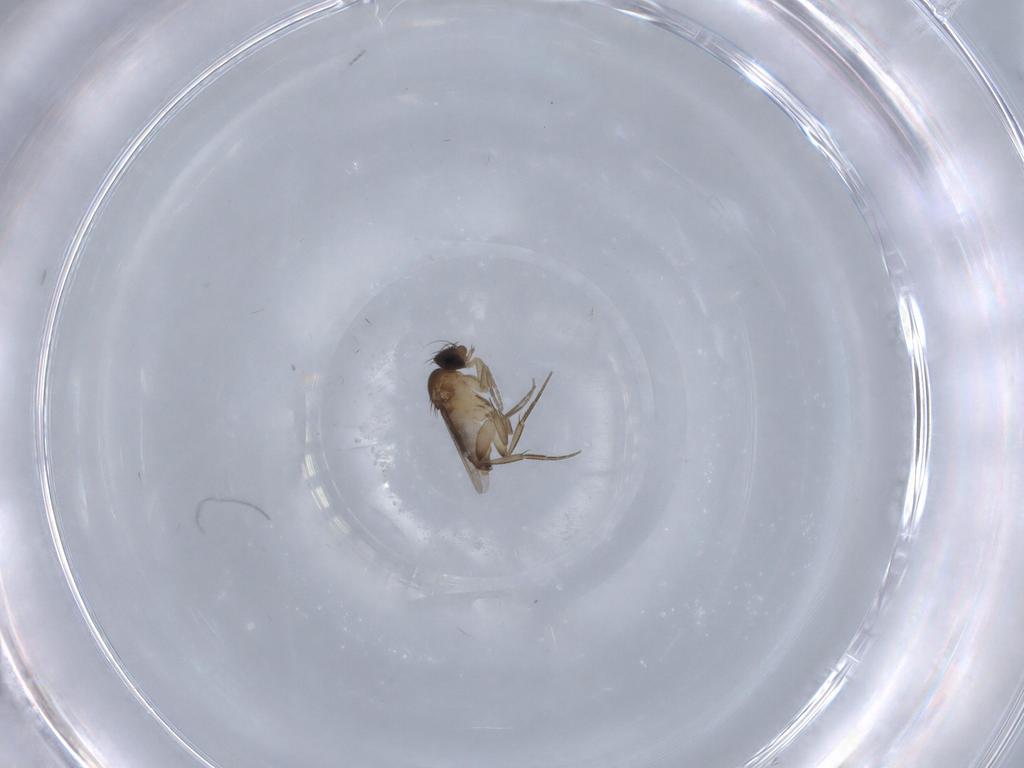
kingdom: Animalia
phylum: Arthropoda
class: Insecta
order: Diptera
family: Phoridae
